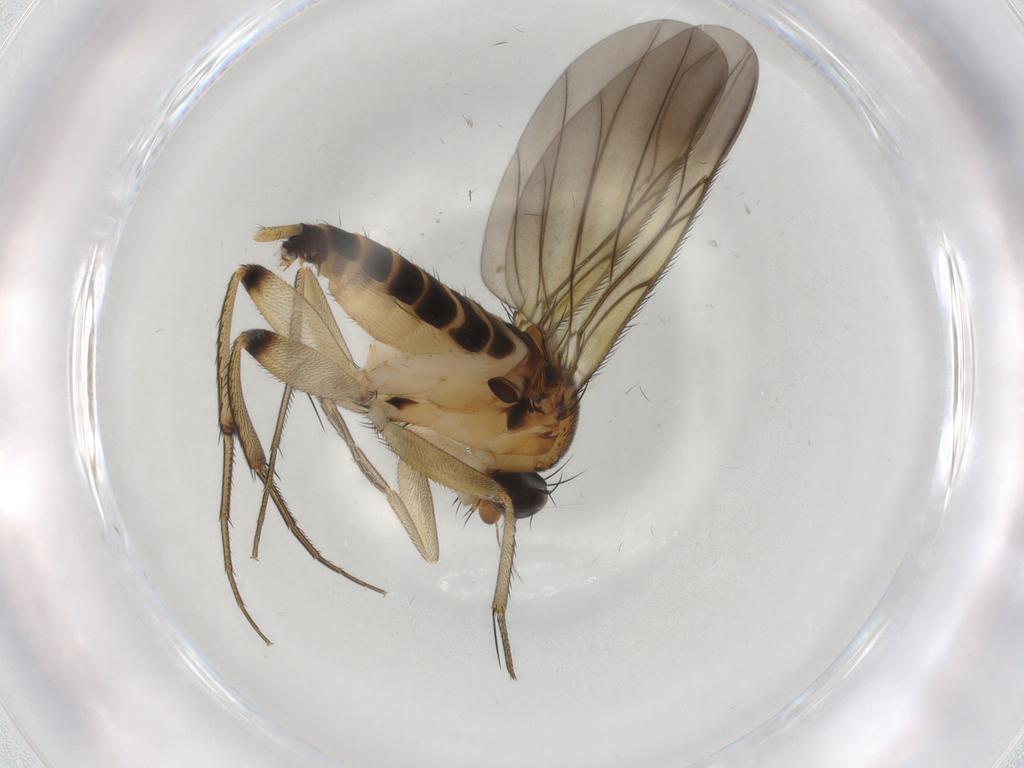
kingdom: Animalia
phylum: Arthropoda
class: Insecta
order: Diptera
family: Phoridae
